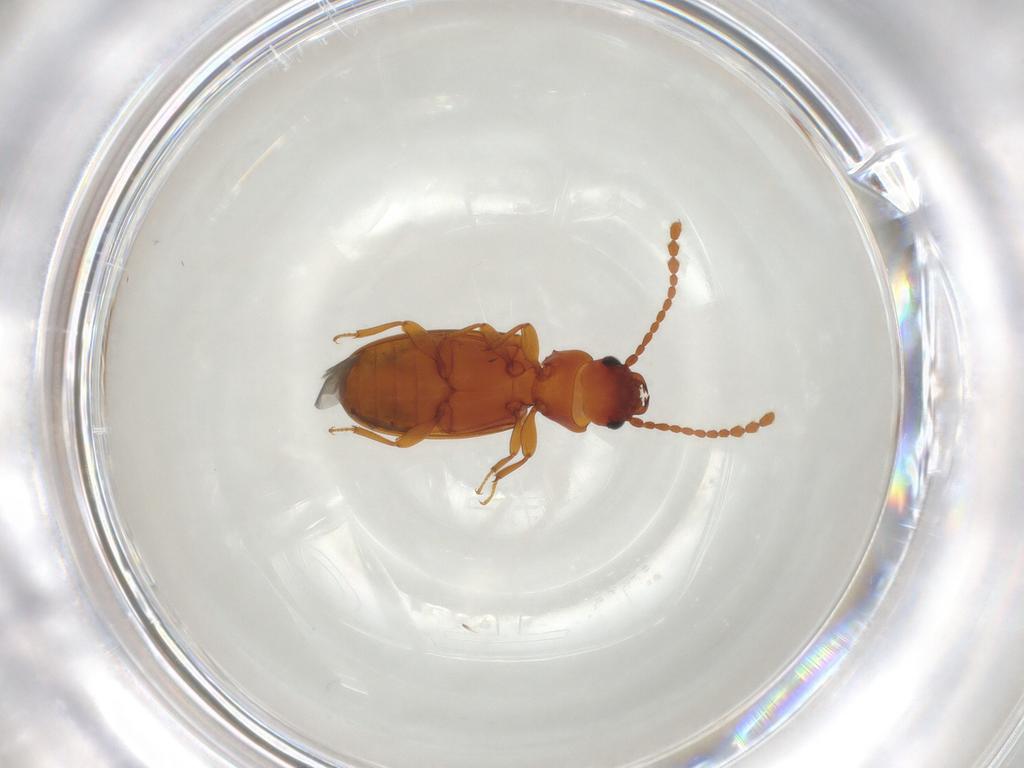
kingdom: Animalia
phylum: Arthropoda
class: Insecta
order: Coleoptera
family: Laemophloeidae
